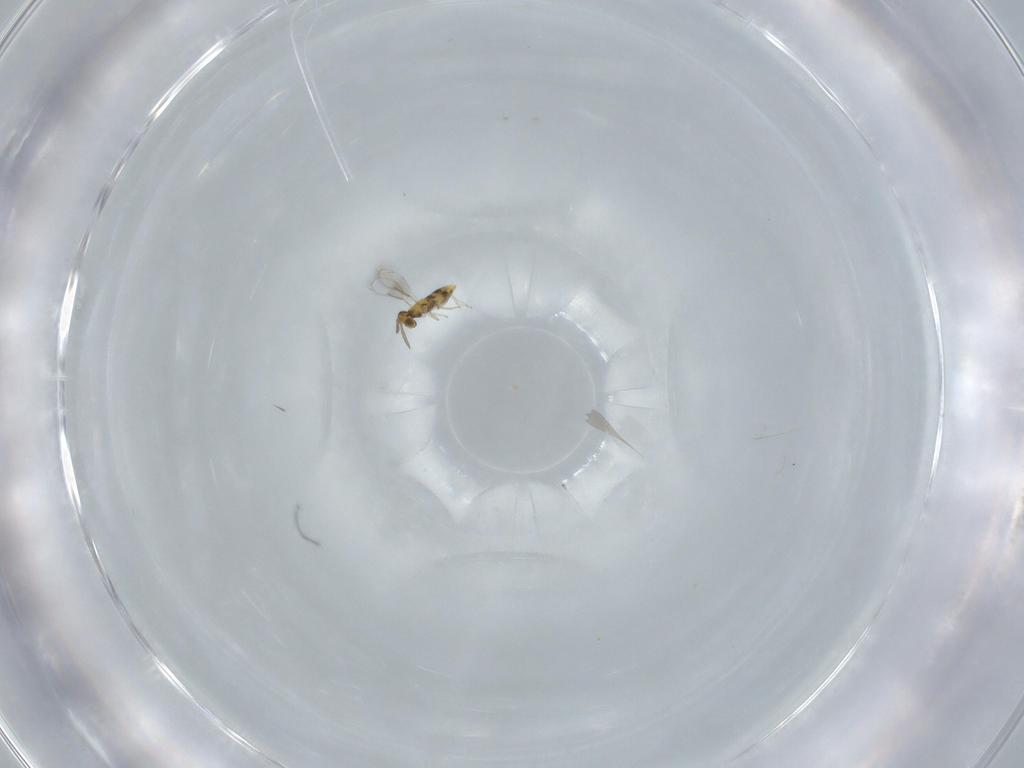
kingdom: Animalia
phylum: Arthropoda
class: Insecta
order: Hymenoptera
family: Aphelinidae
